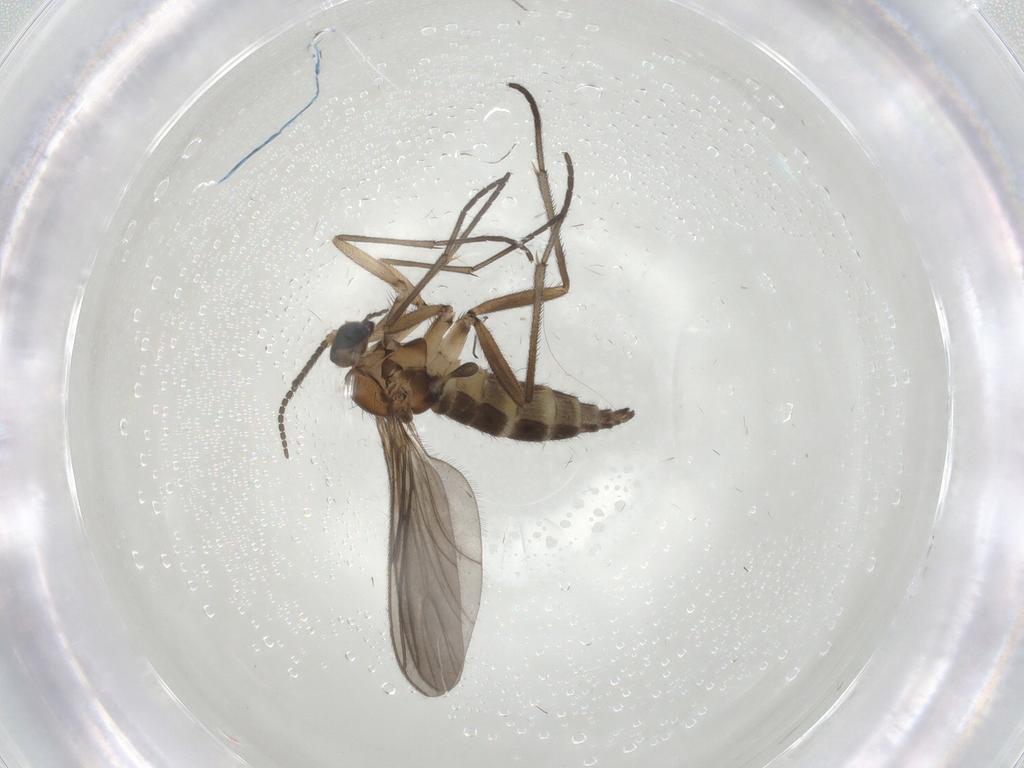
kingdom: Animalia
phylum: Arthropoda
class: Insecta
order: Diptera
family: Sciaridae
